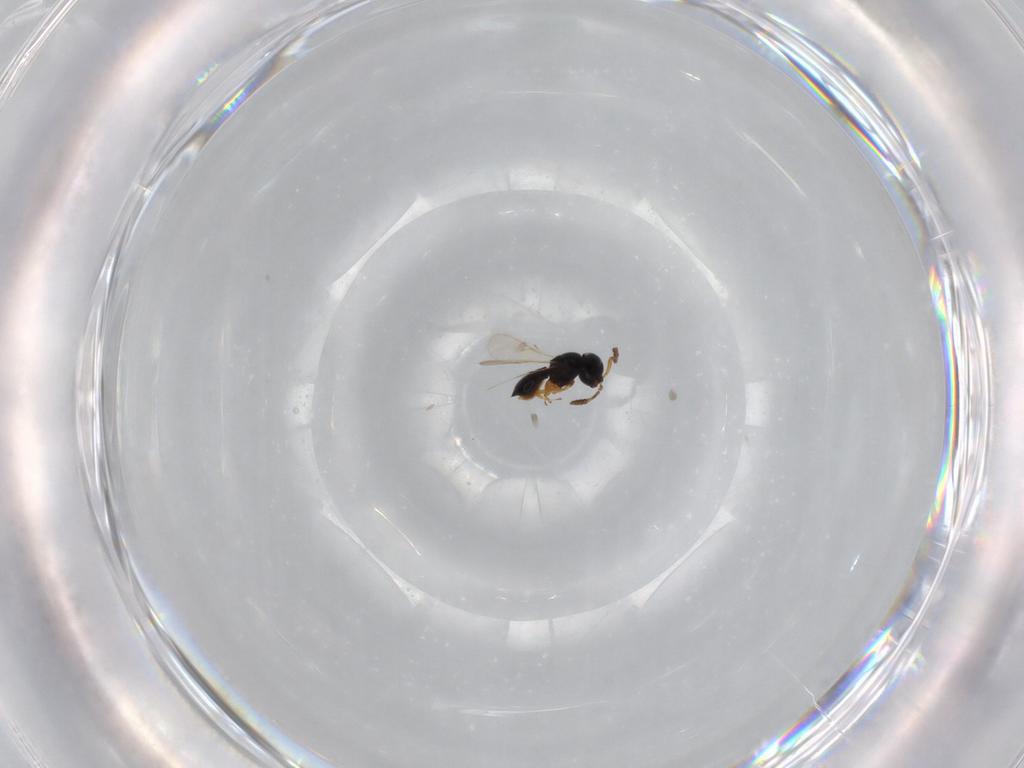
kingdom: Animalia
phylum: Arthropoda
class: Insecta
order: Hymenoptera
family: Scelionidae
